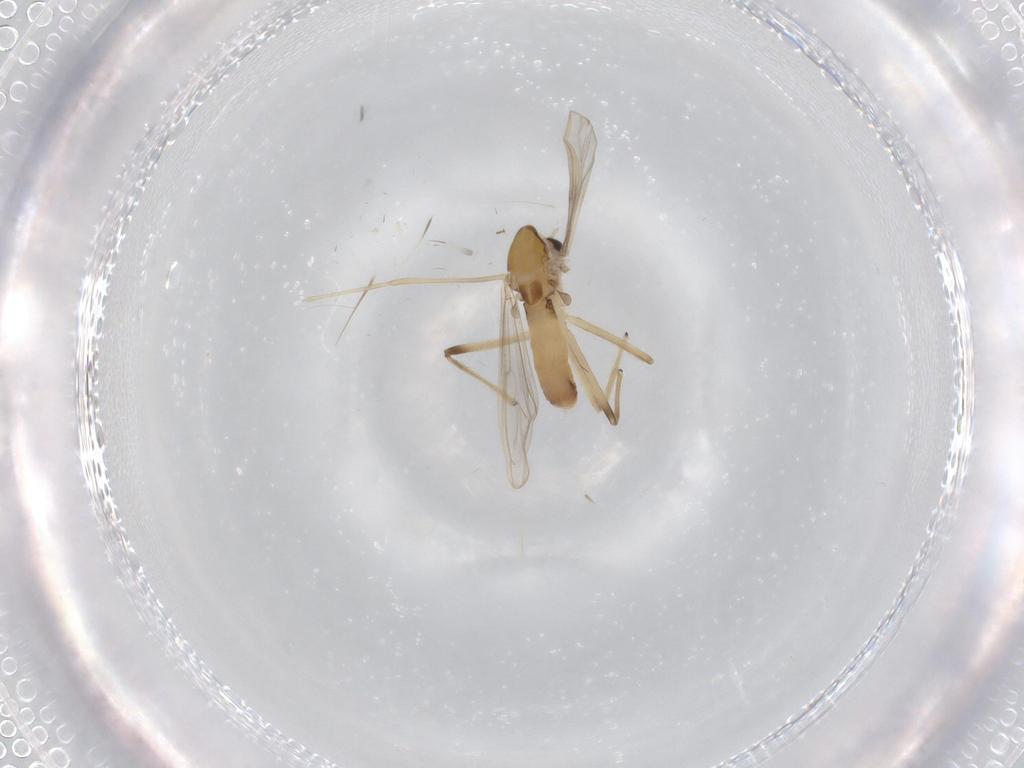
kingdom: Animalia
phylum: Arthropoda
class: Insecta
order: Diptera
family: Chironomidae
